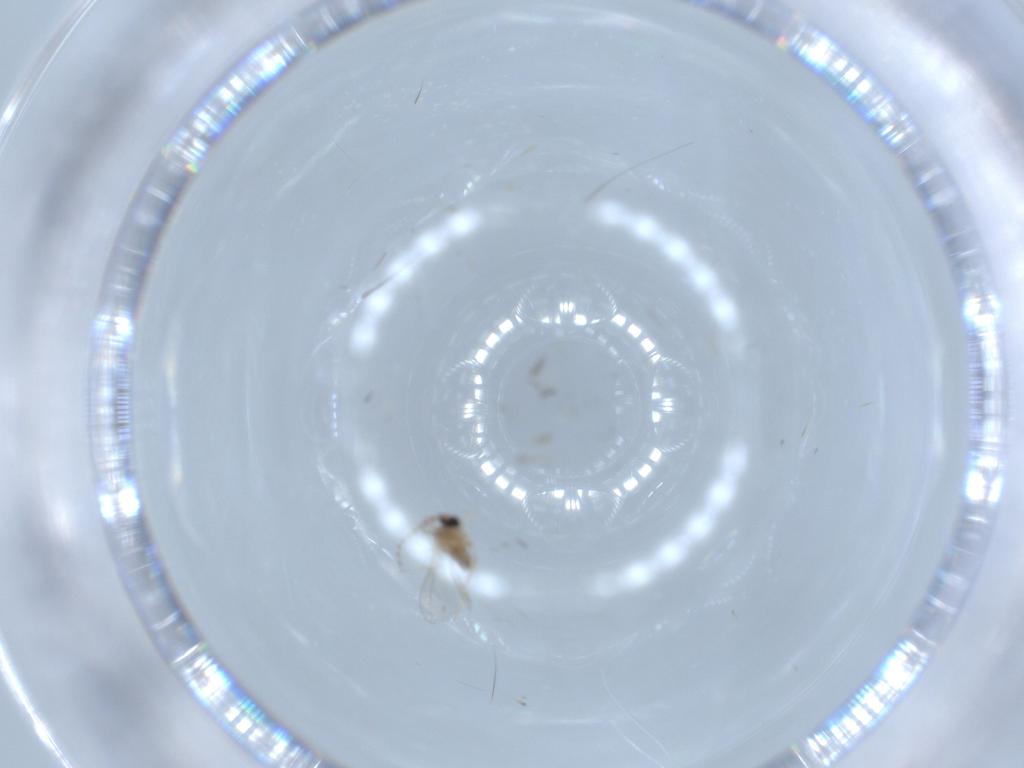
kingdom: Animalia
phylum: Arthropoda
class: Insecta
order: Diptera
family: Cecidomyiidae
